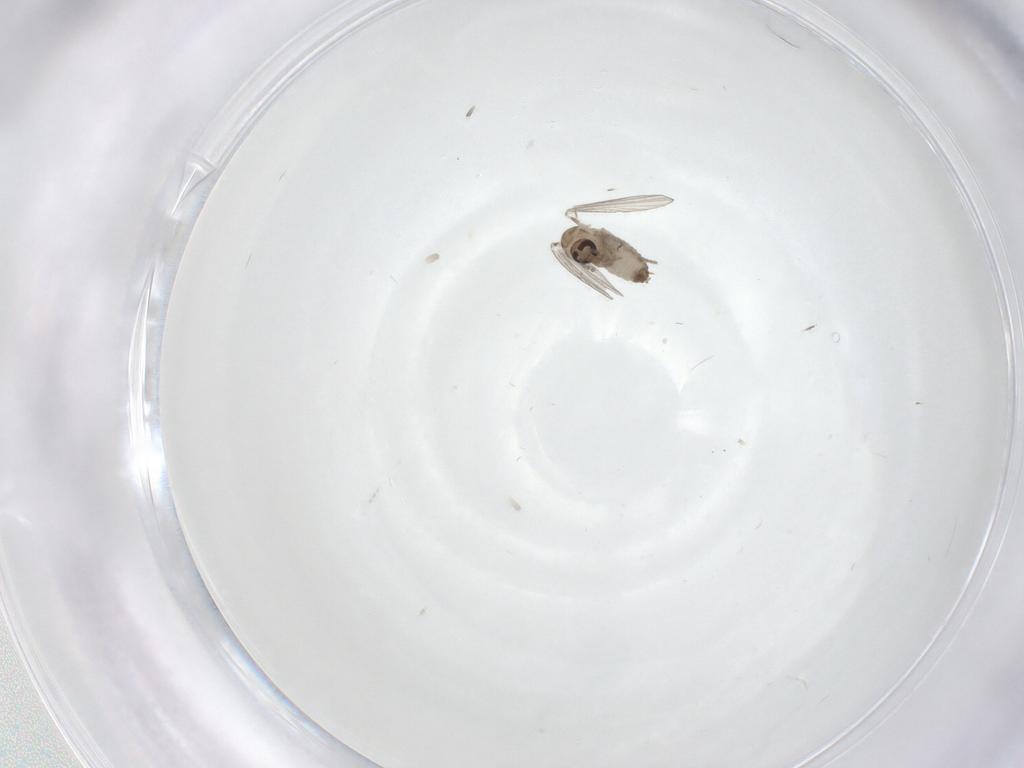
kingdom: Animalia
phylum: Arthropoda
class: Insecta
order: Diptera
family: Psychodidae
